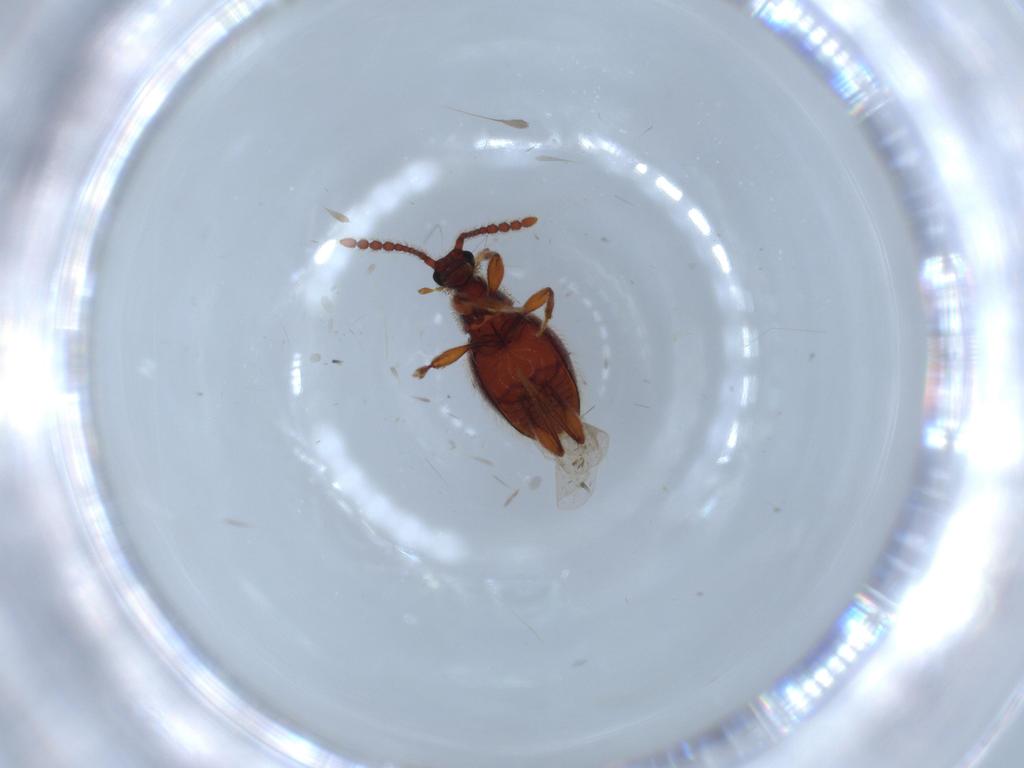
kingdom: Animalia
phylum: Arthropoda
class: Insecta
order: Coleoptera
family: Staphylinidae
